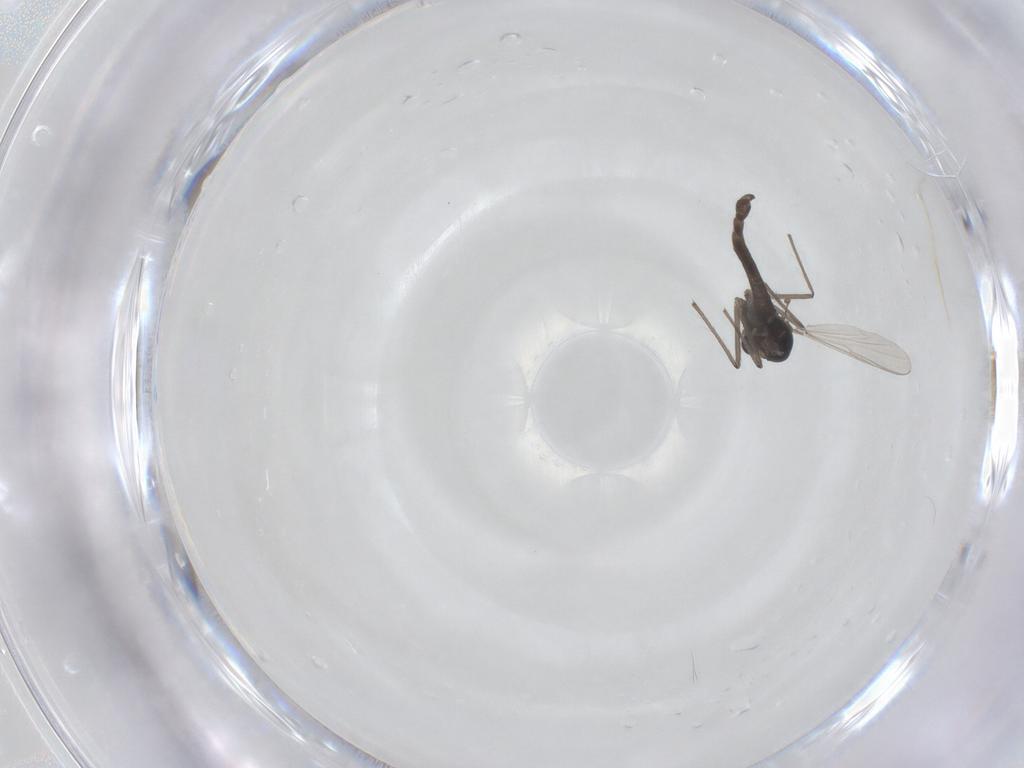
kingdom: Animalia
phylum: Arthropoda
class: Insecta
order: Diptera
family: Chironomidae
